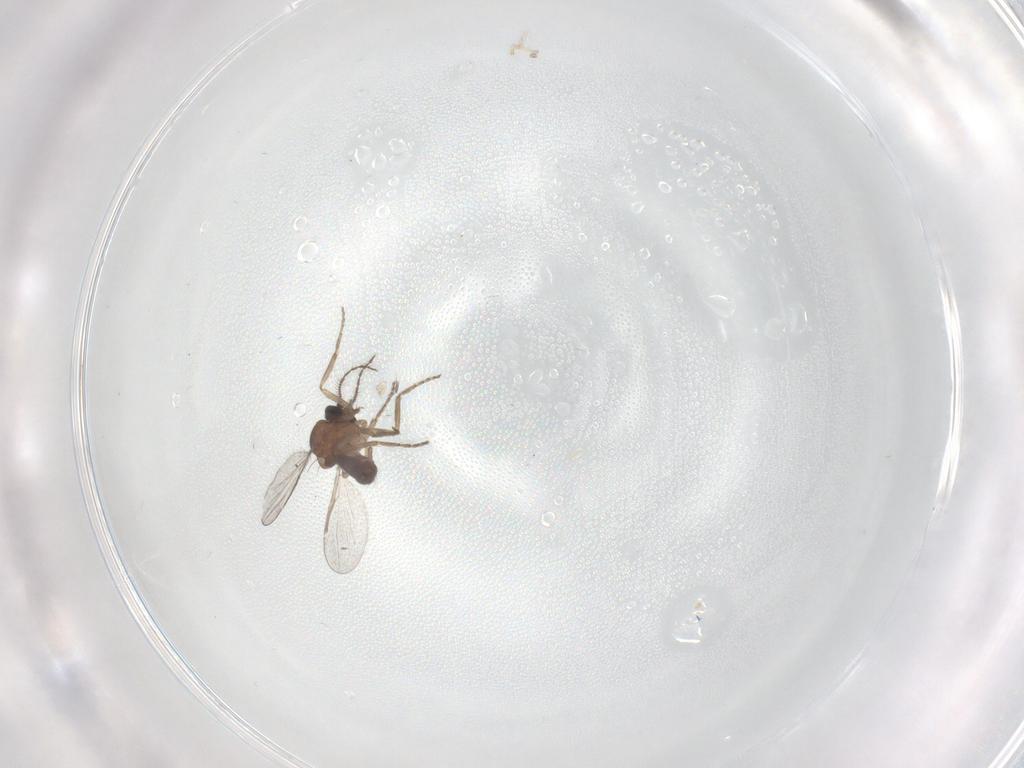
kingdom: Animalia
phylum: Arthropoda
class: Insecta
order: Diptera
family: Ceratopogonidae
